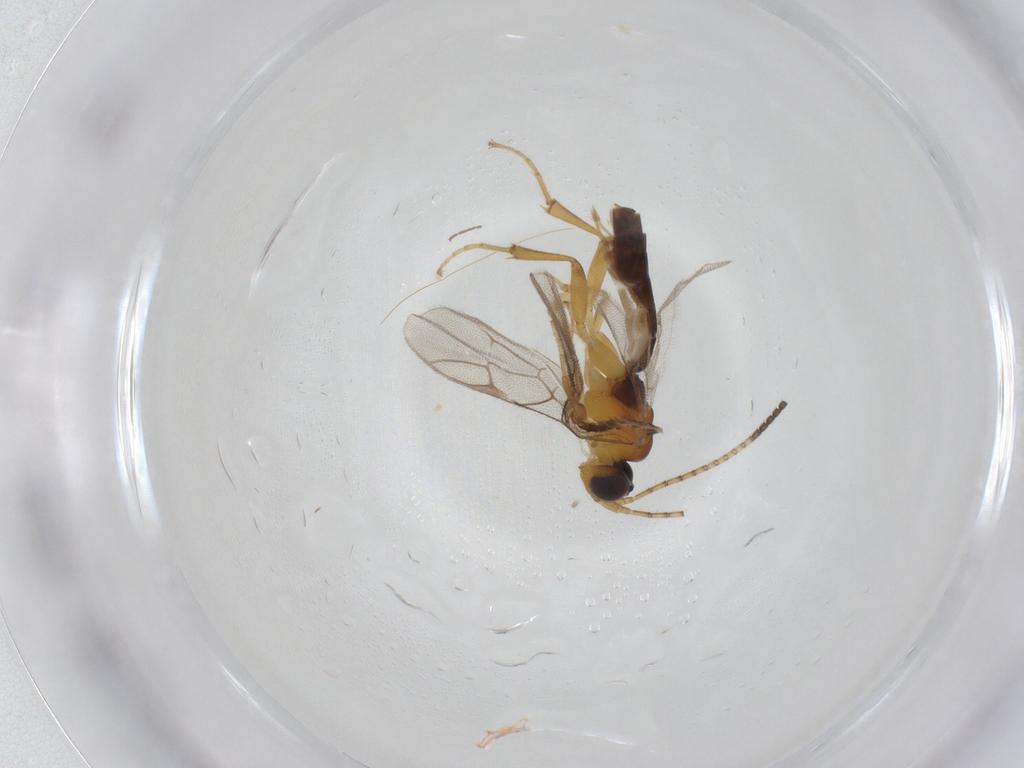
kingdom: Animalia
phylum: Arthropoda
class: Insecta
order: Hymenoptera
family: Ichneumonidae
